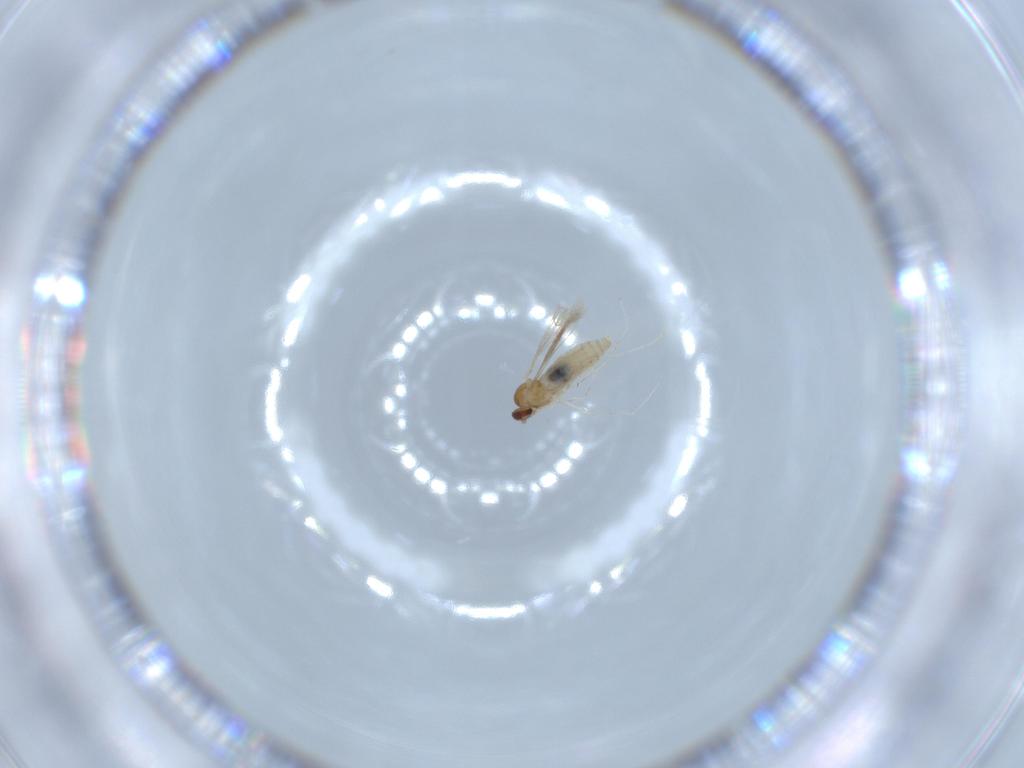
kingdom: Animalia
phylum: Arthropoda
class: Insecta
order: Diptera
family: Cecidomyiidae
